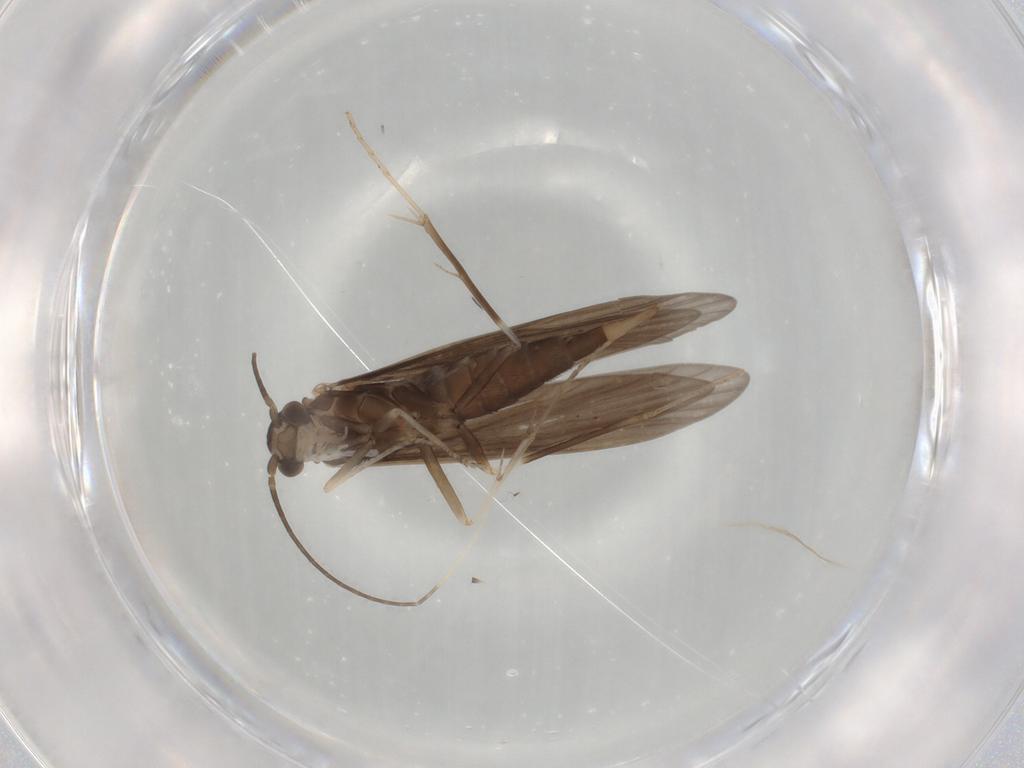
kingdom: Animalia
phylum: Arthropoda
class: Insecta
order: Trichoptera
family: Xiphocentronidae
